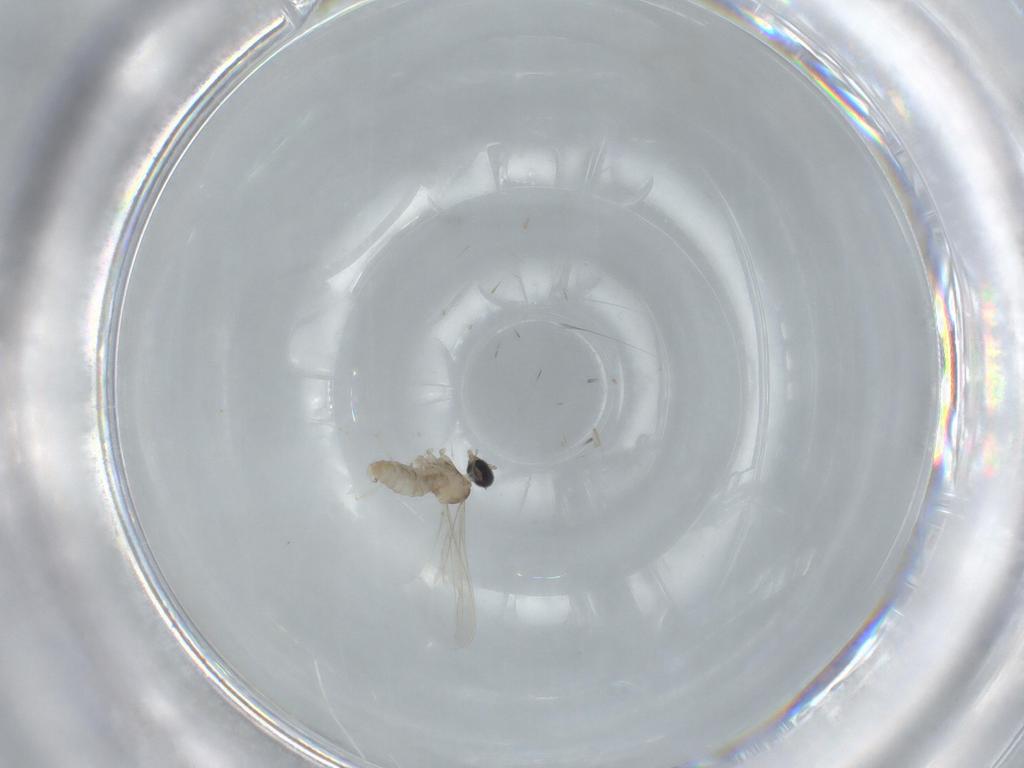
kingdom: Animalia
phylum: Arthropoda
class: Insecta
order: Diptera
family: Cecidomyiidae
